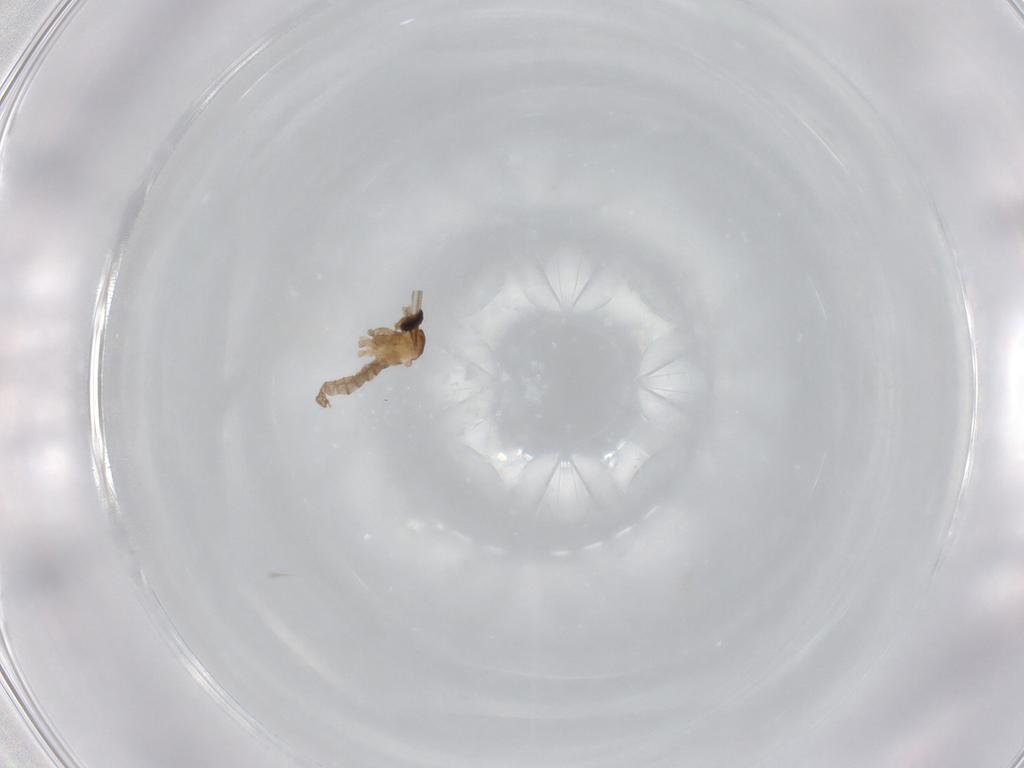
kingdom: Animalia
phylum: Arthropoda
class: Insecta
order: Diptera
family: Cecidomyiidae
